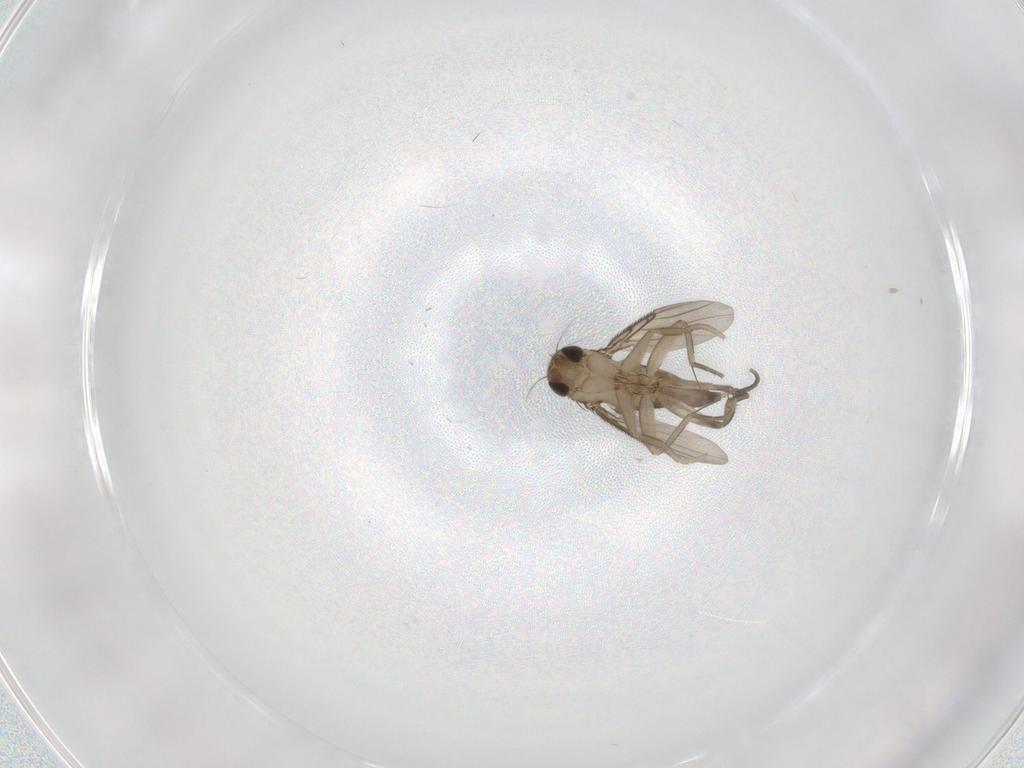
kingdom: Animalia
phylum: Arthropoda
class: Insecta
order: Diptera
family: Phoridae
